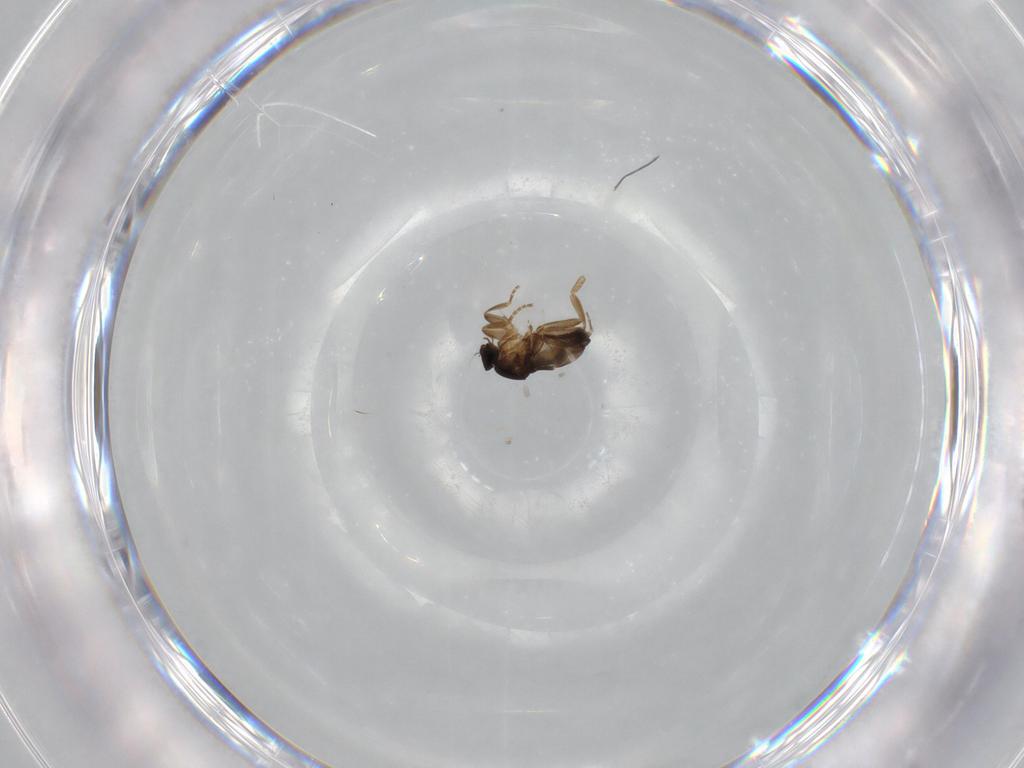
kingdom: Animalia
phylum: Arthropoda
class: Insecta
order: Diptera
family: Phoridae
